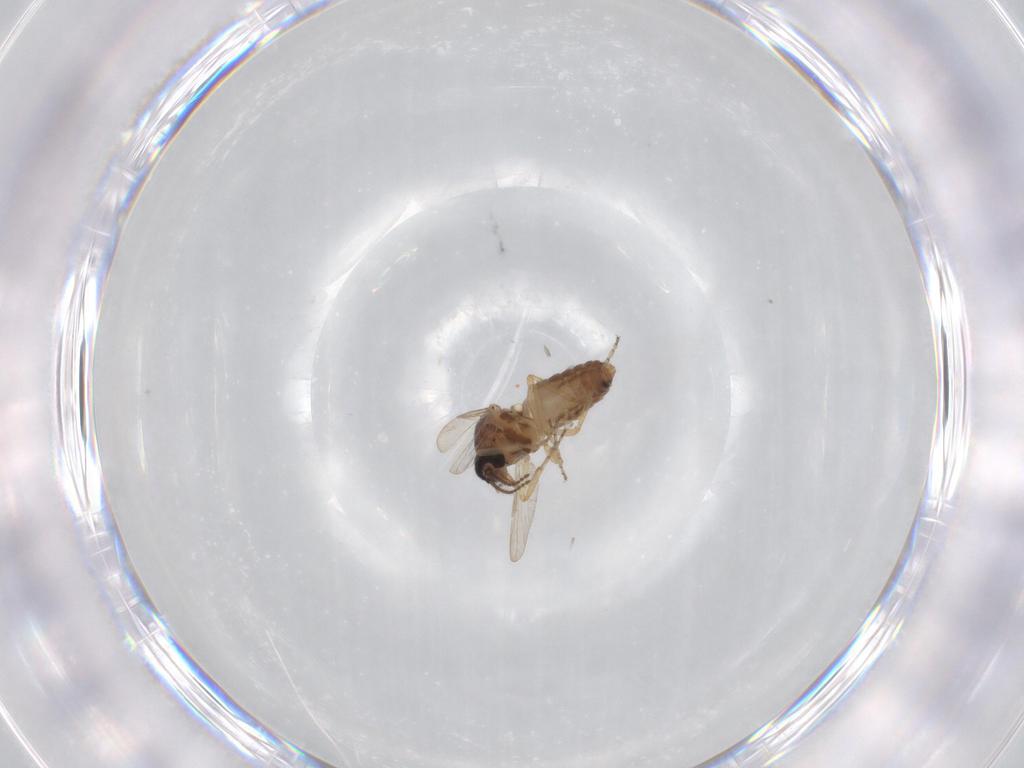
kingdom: Animalia
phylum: Arthropoda
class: Insecta
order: Diptera
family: Ceratopogonidae
